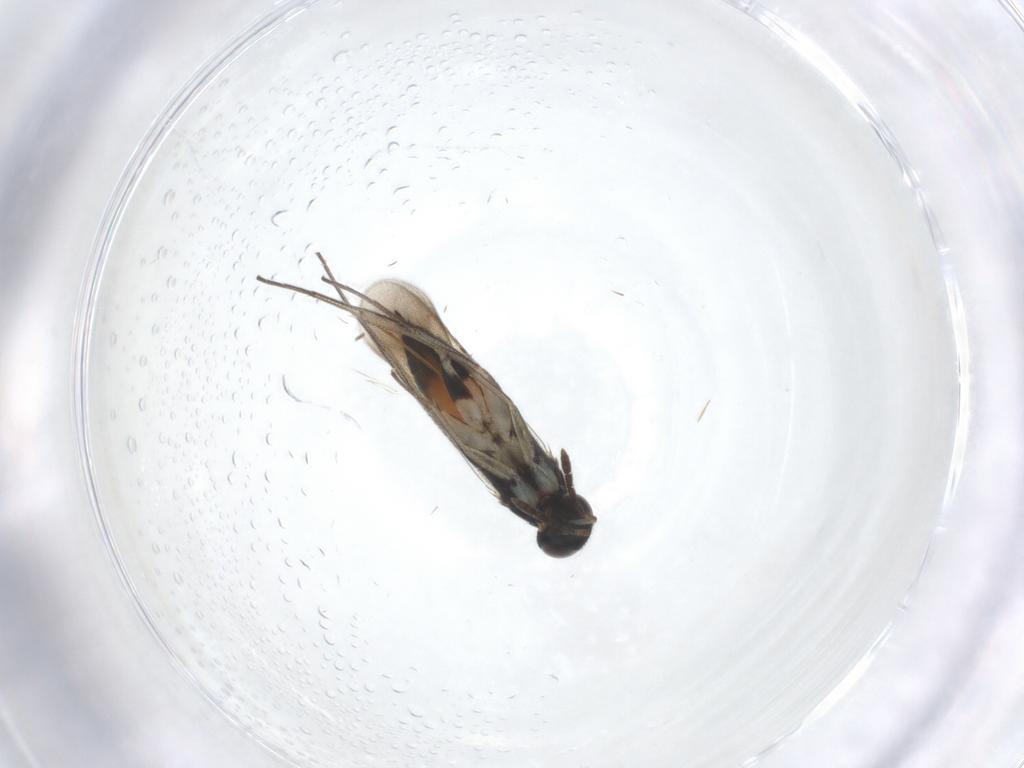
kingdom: Animalia
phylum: Arthropoda
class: Insecta
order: Hymenoptera
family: Eulophidae
